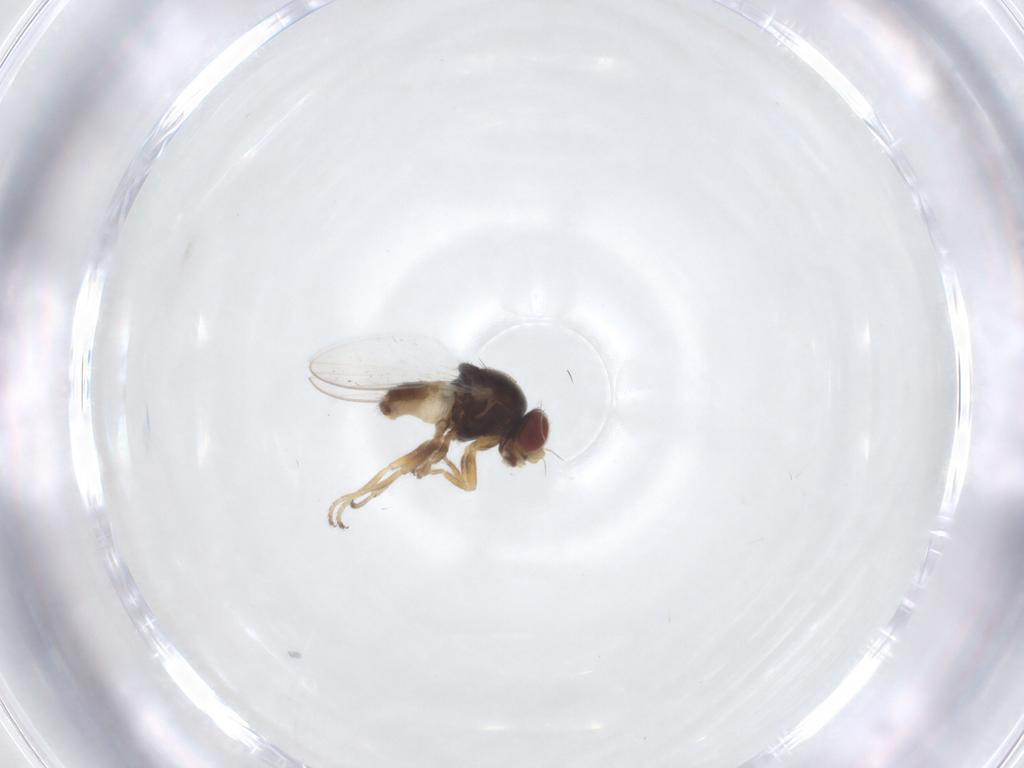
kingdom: Animalia
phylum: Arthropoda
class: Insecta
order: Diptera
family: Chloropidae
